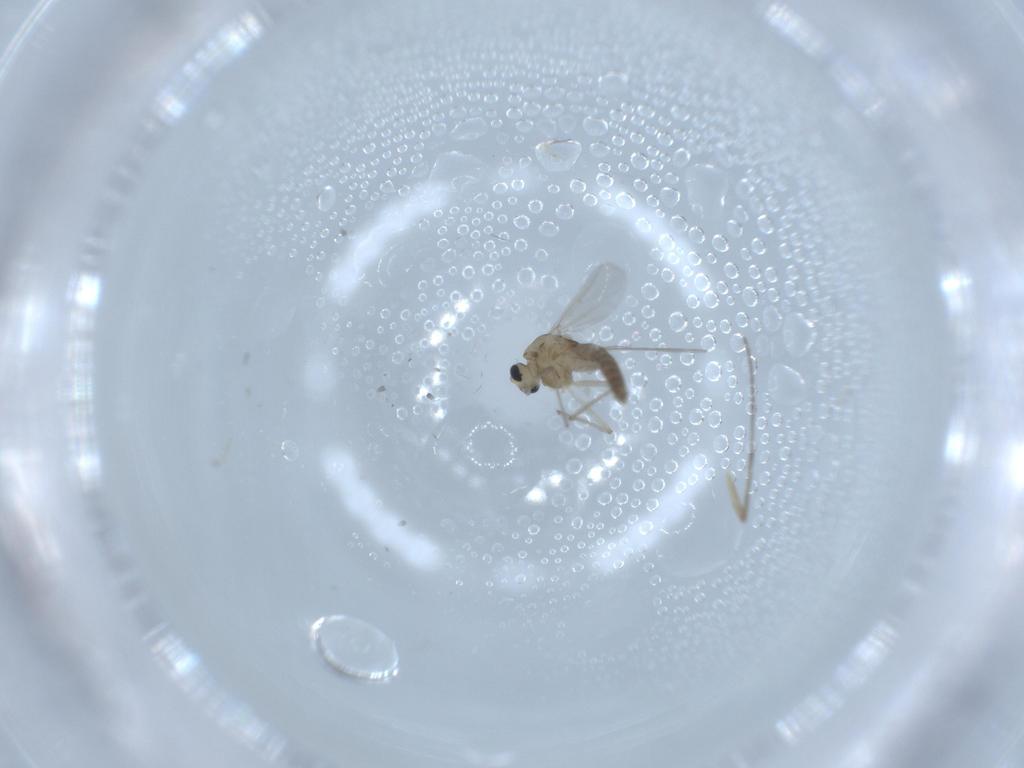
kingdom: Animalia
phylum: Arthropoda
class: Insecta
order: Diptera
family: Chironomidae
